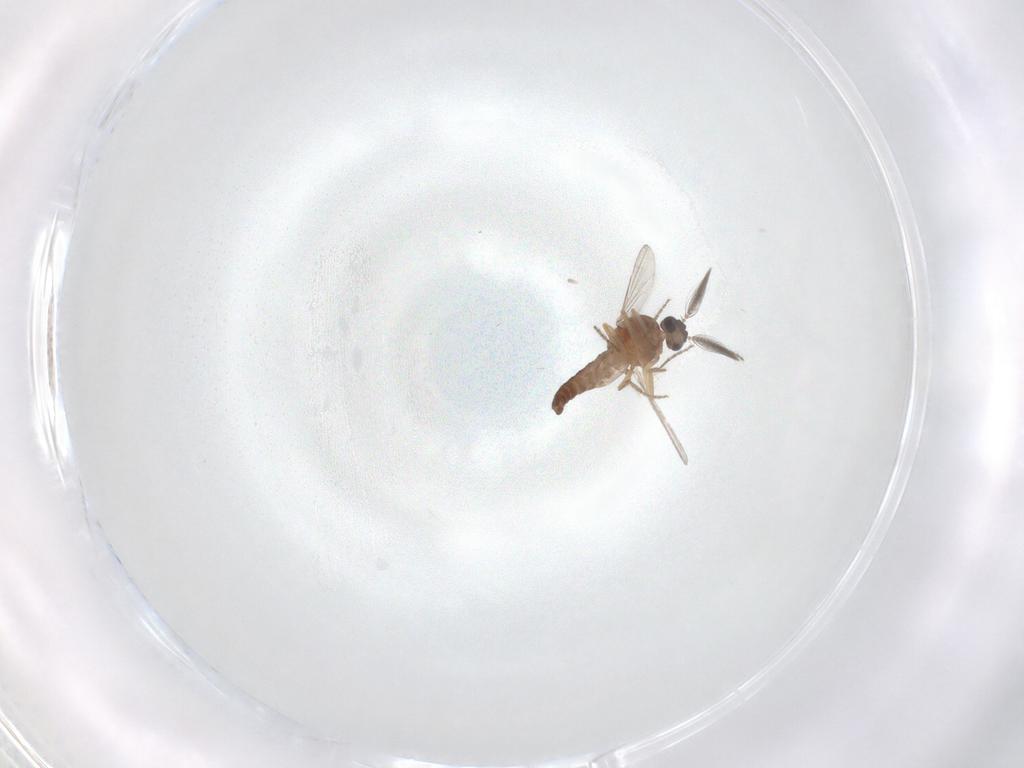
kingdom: Animalia
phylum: Arthropoda
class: Insecta
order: Diptera
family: Ceratopogonidae
